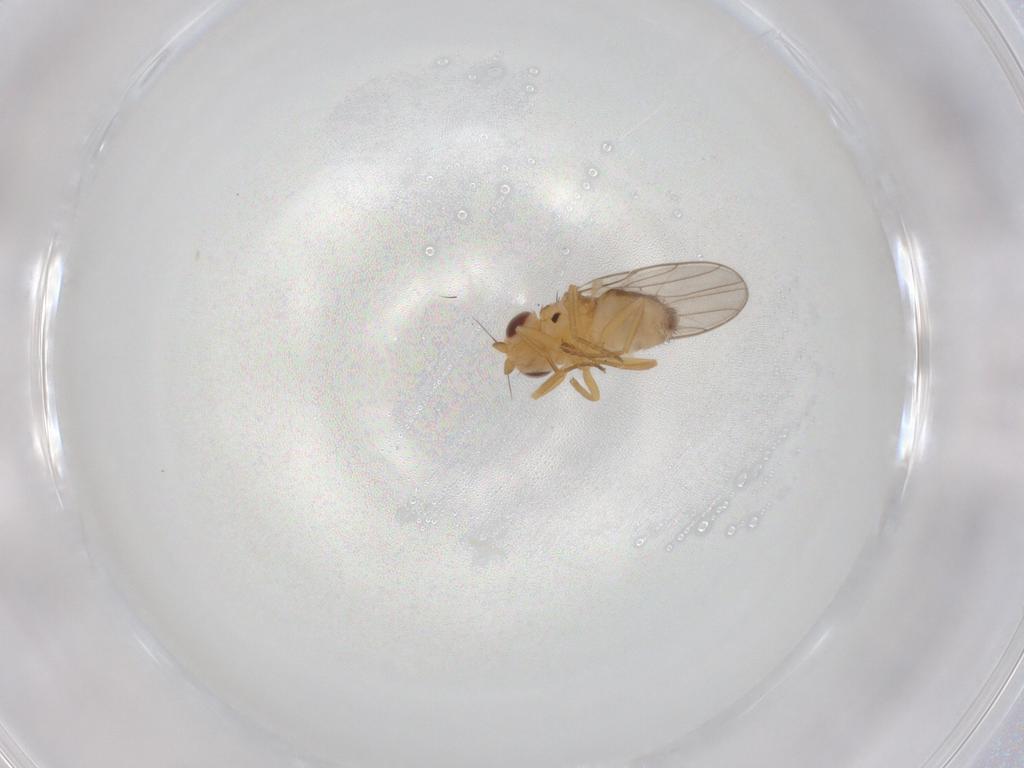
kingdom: Animalia
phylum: Arthropoda
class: Insecta
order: Diptera
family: Chloropidae
